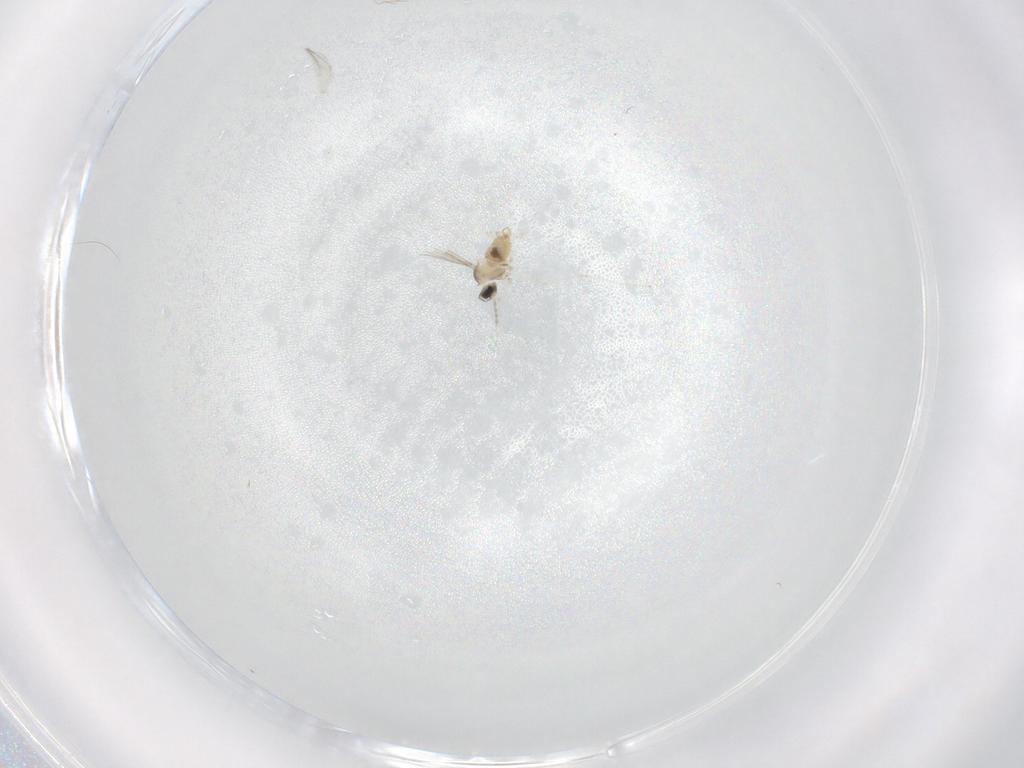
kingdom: Animalia
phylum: Arthropoda
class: Insecta
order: Diptera
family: Cecidomyiidae
